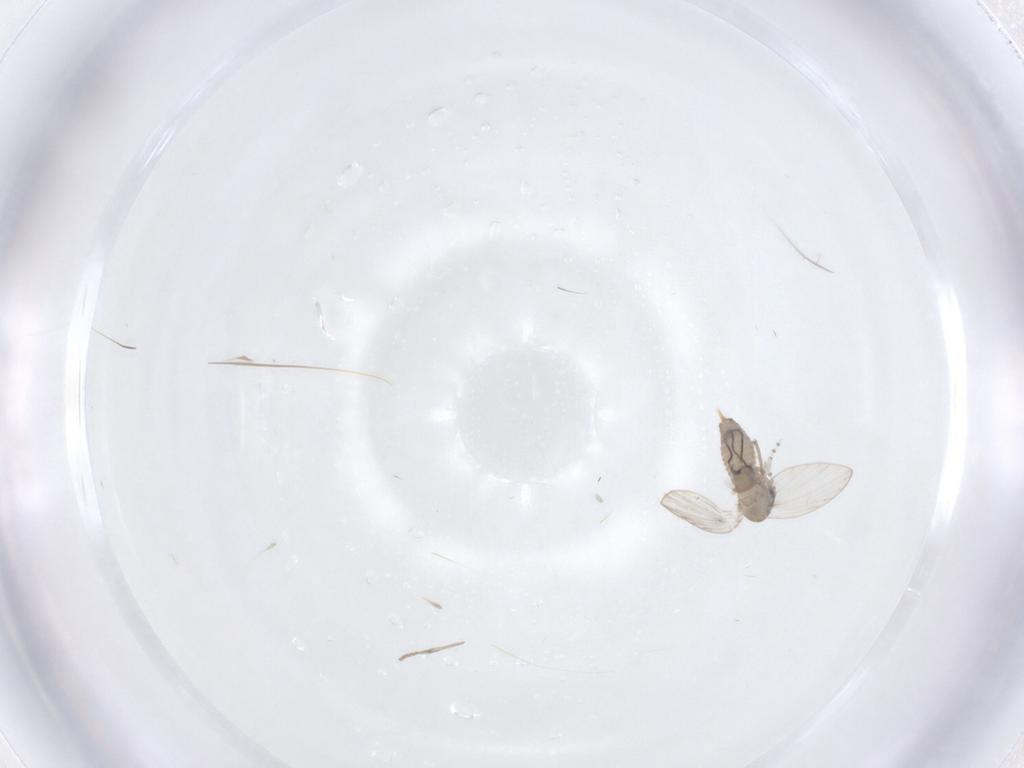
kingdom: Animalia
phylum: Arthropoda
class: Insecta
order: Diptera
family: Psychodidae
